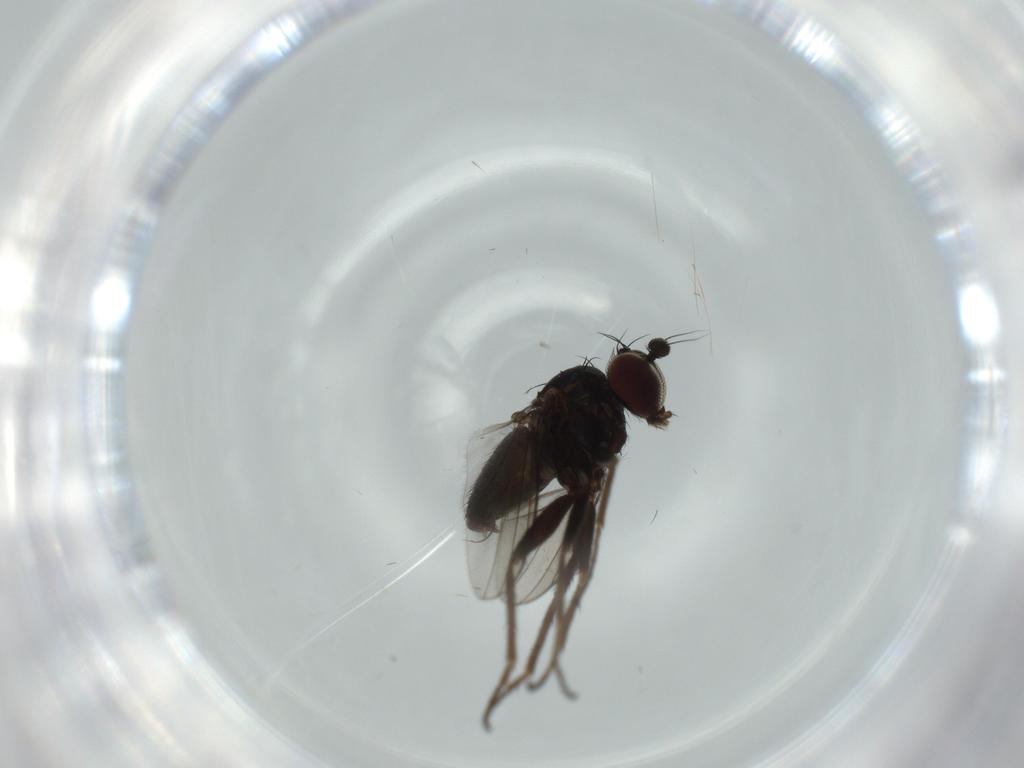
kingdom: Animalia
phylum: Arthropoda
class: Insecta
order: Diptera
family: Dolichopodidae
